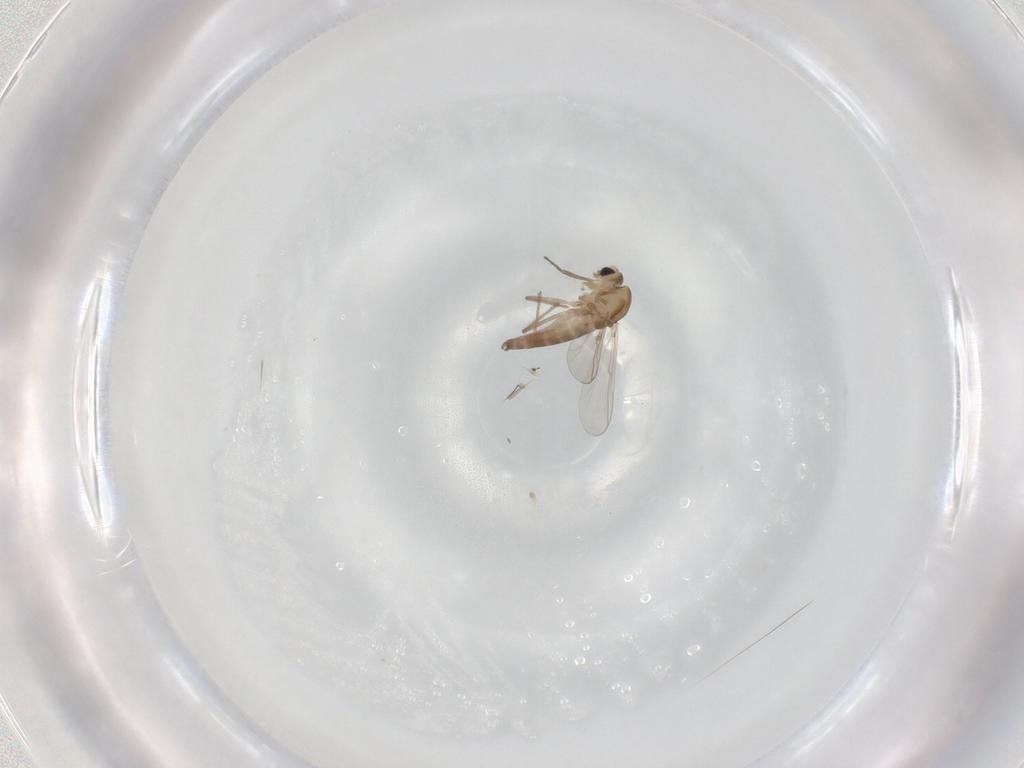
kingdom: Animalia
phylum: Arthropoda
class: Insecta
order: Diptera
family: Chironomidae
